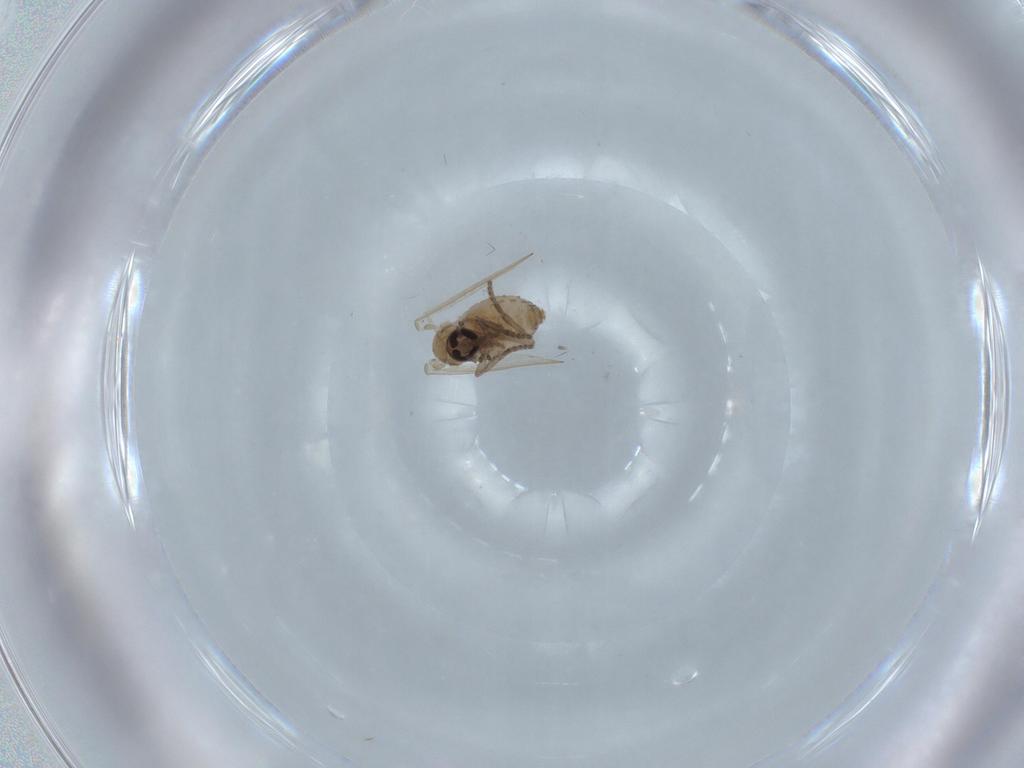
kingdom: Animalia
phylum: Arthropoda
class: Insecta
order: Diptera
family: Psychodidae
